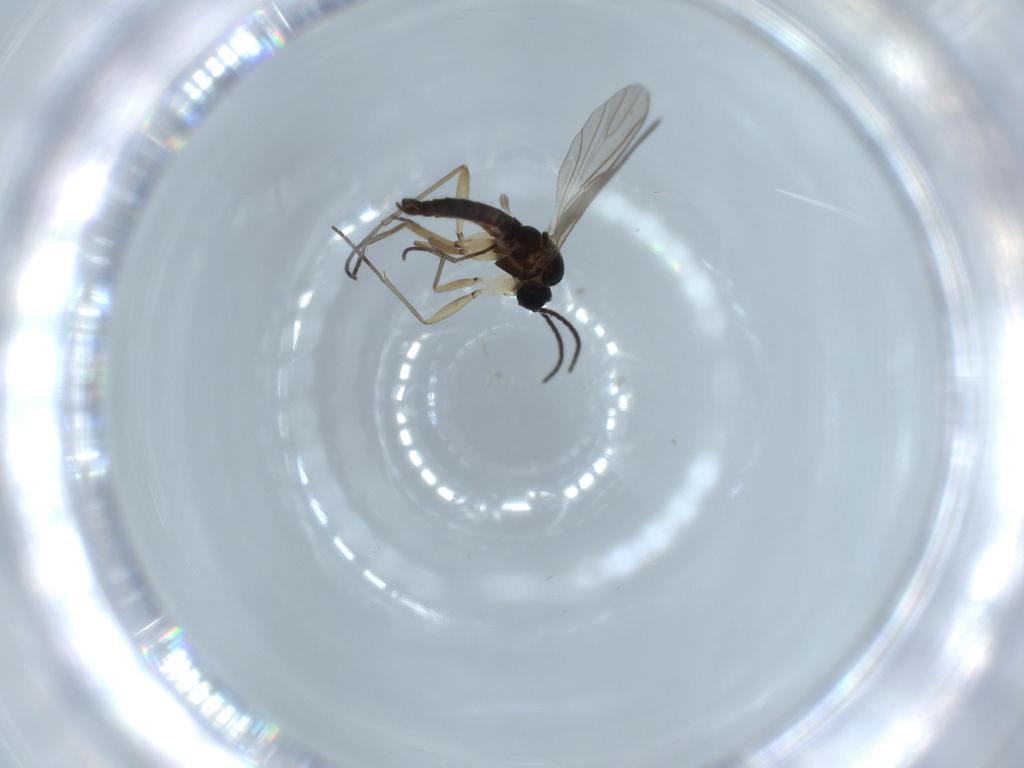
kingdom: Animalia
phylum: Arthropoda
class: Insecta
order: Diptera
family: Sciaridae
